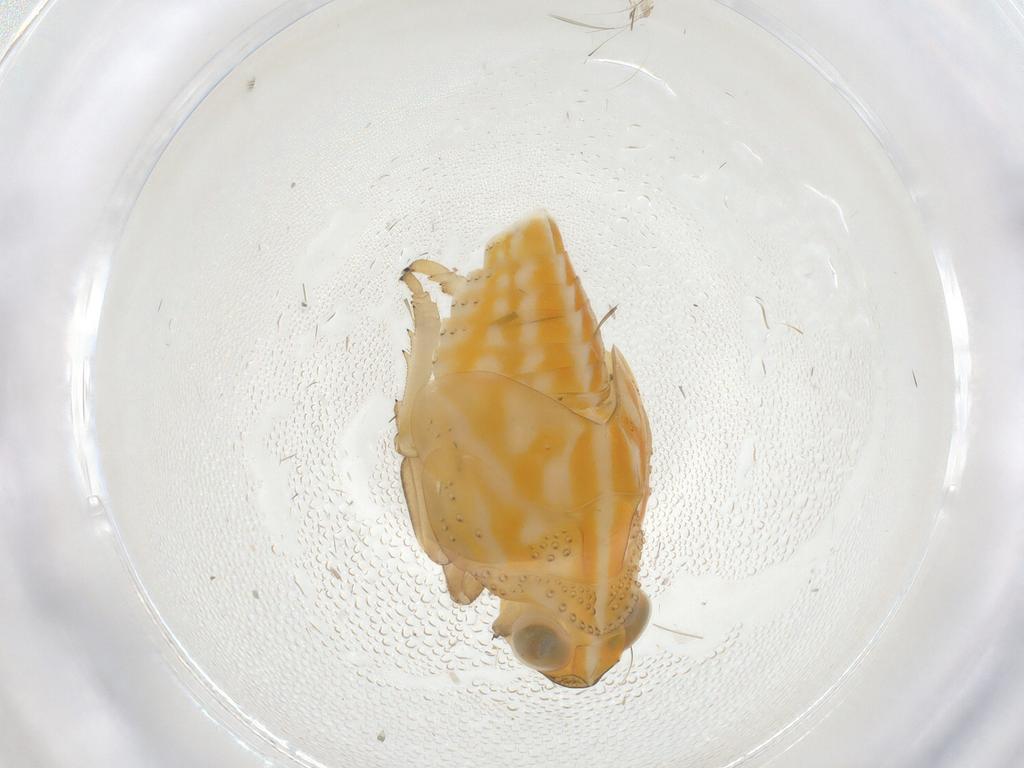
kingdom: Animalia
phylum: Arthropoda
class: Insecta
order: Hemiptera
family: Issidae
